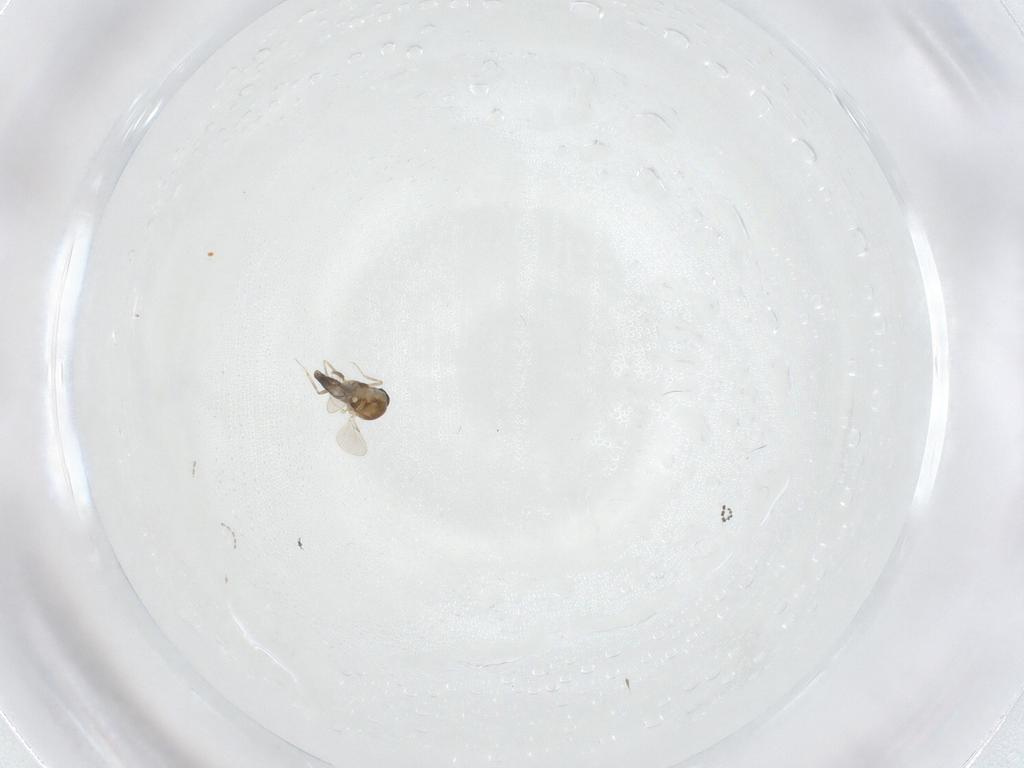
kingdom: Animalia
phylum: Arthropoda
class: Insecta
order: Diptera
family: Cecidomyiidae
